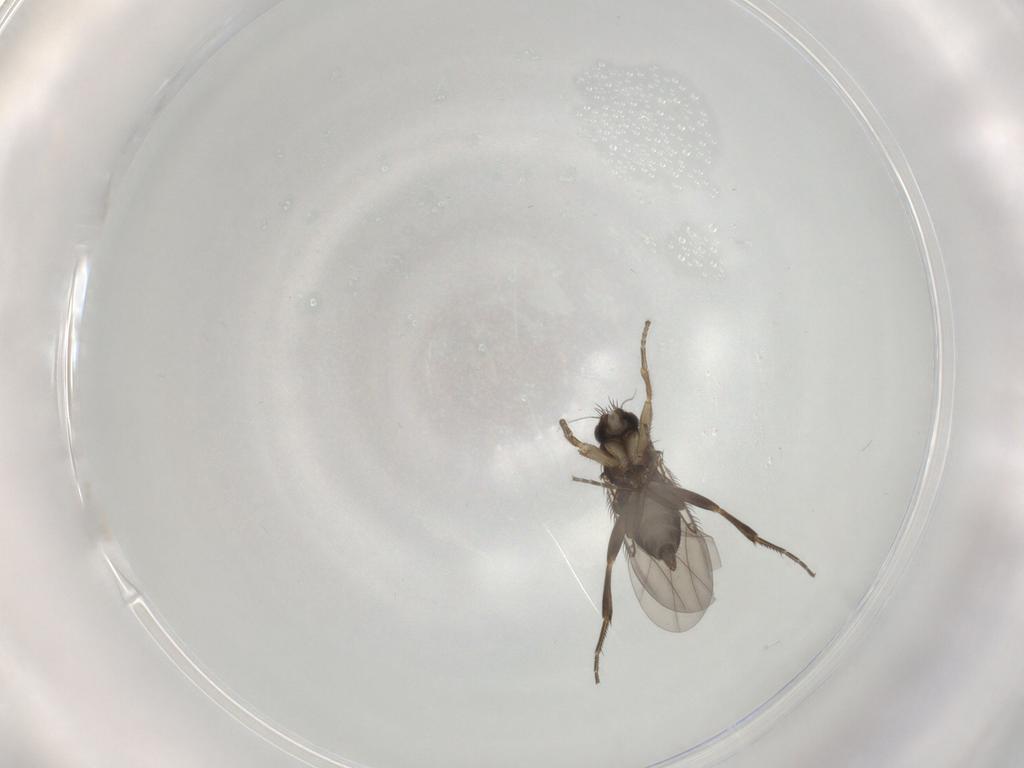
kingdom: Animalia
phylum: Arthropoda
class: Insecta
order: Diptera
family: Phoridae
